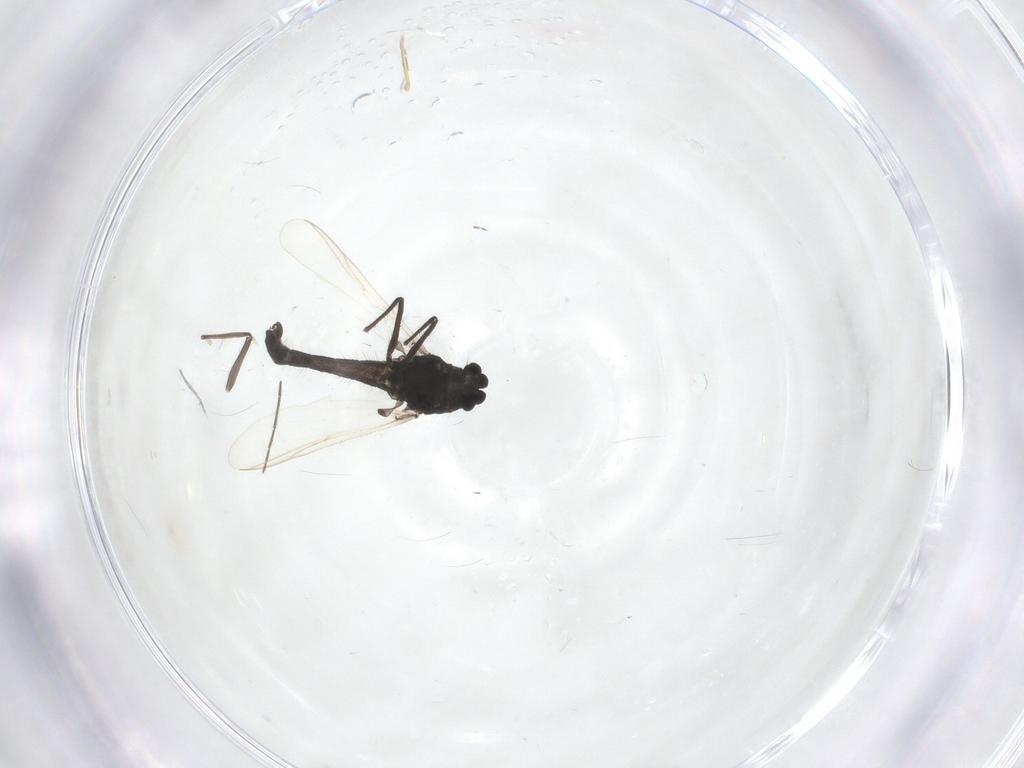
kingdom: Animalia
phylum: Arthropoda
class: Insecta
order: Diptera
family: Chironomidae
